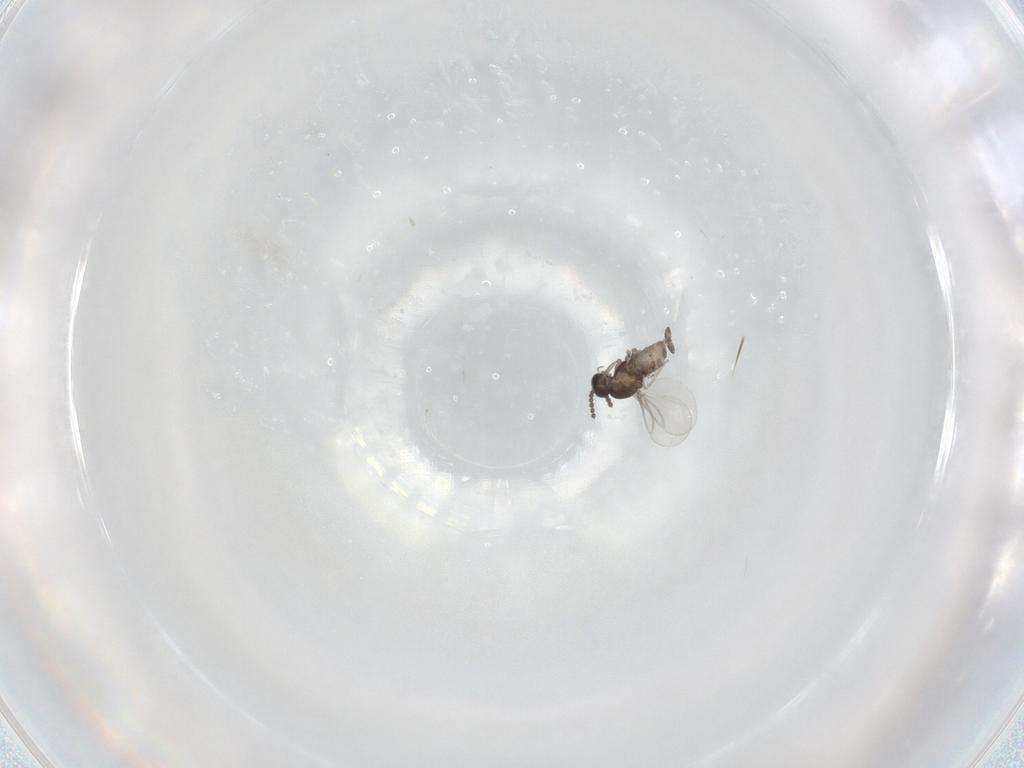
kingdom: Animalia
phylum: Arthropoda
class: Insecta
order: Diptera
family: Cecidomyiidae
